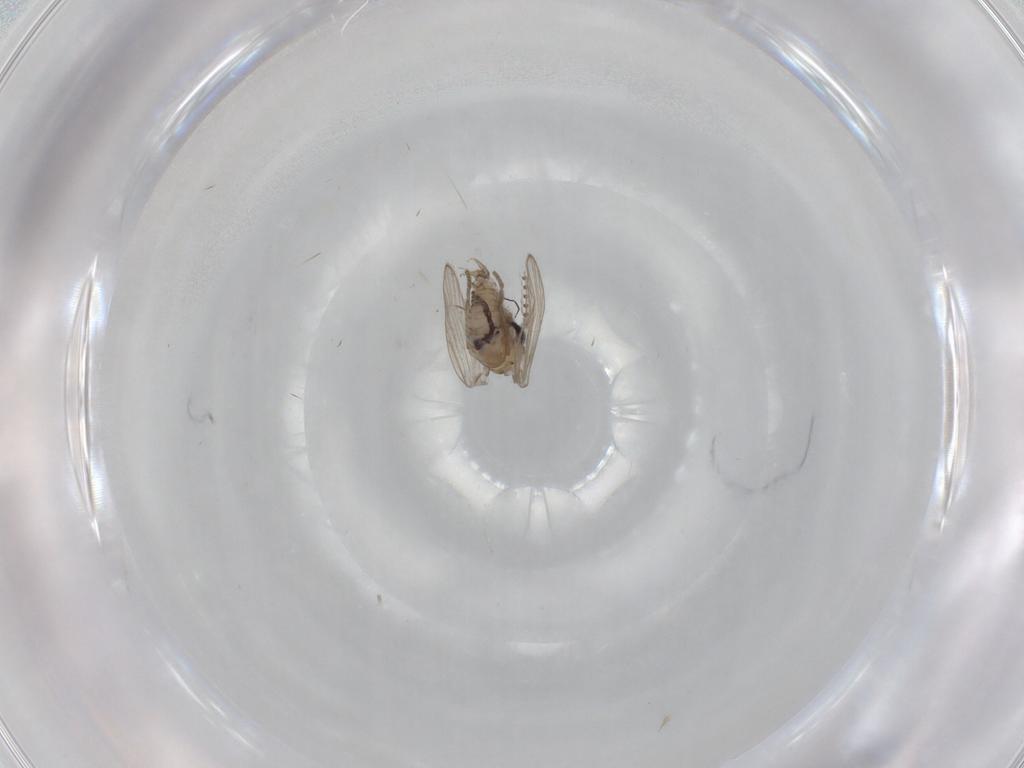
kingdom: Animalia
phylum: Arthropoda
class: Insecta
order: Diptera
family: Psychodidae
